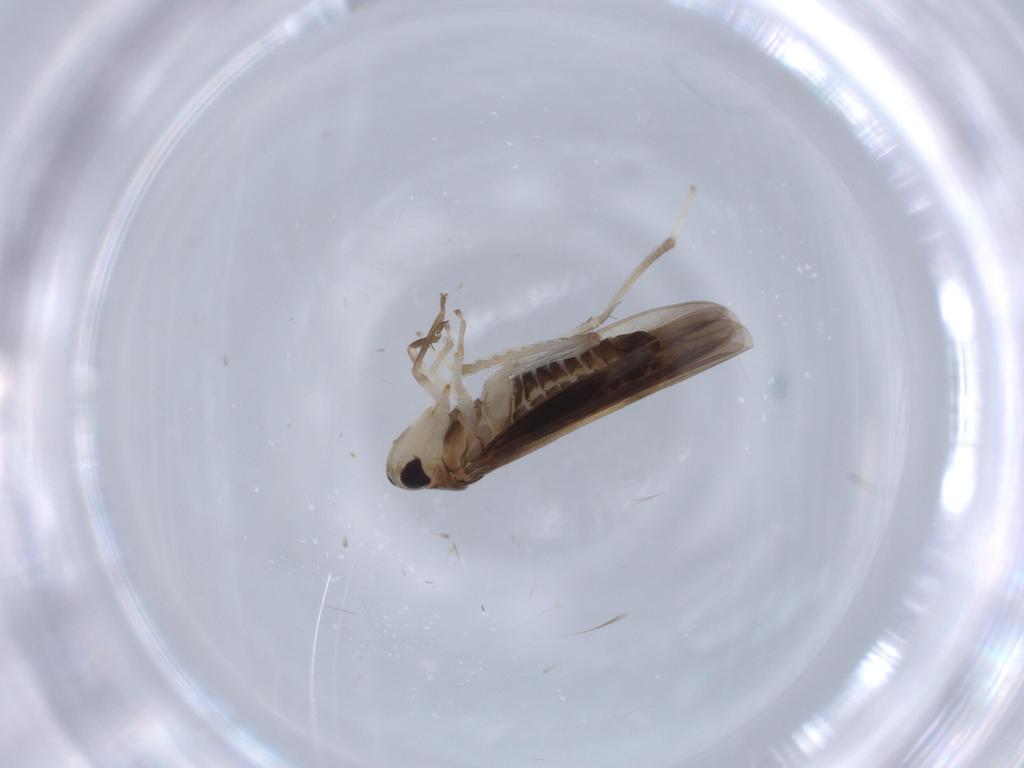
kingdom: Animalia
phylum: Arthropoda
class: Insecta
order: Hemiptera
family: Cicadellidae
